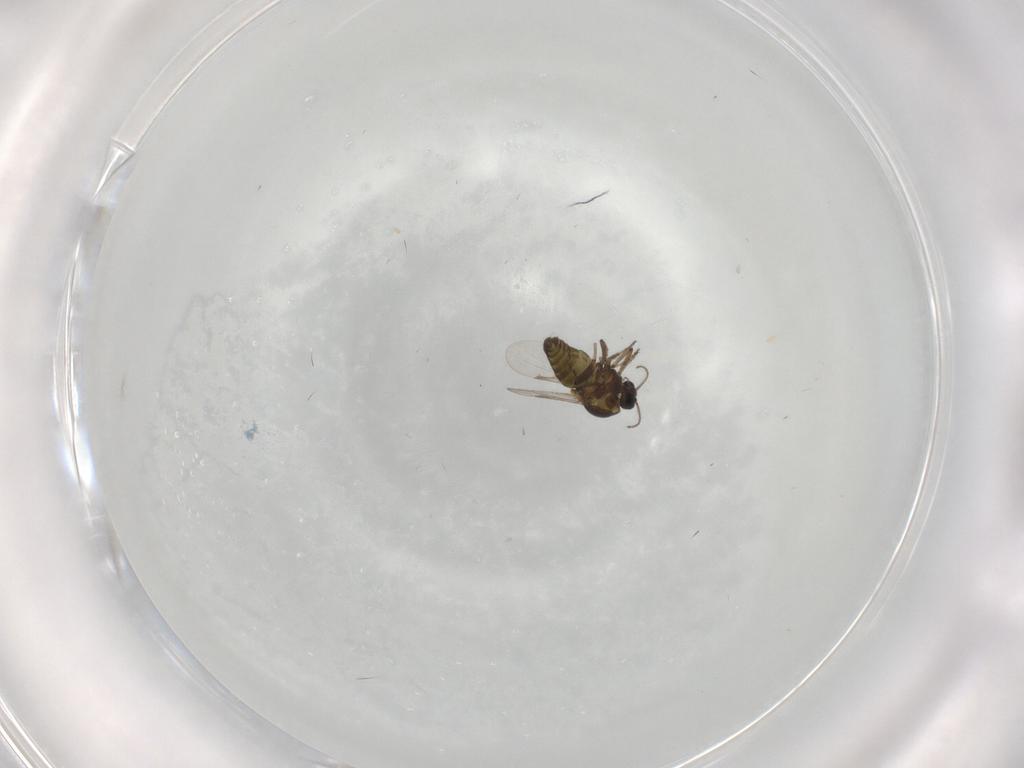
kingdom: Animalia
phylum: Arthropoda
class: Insecta
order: Diptera
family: Ceratopogonidae
